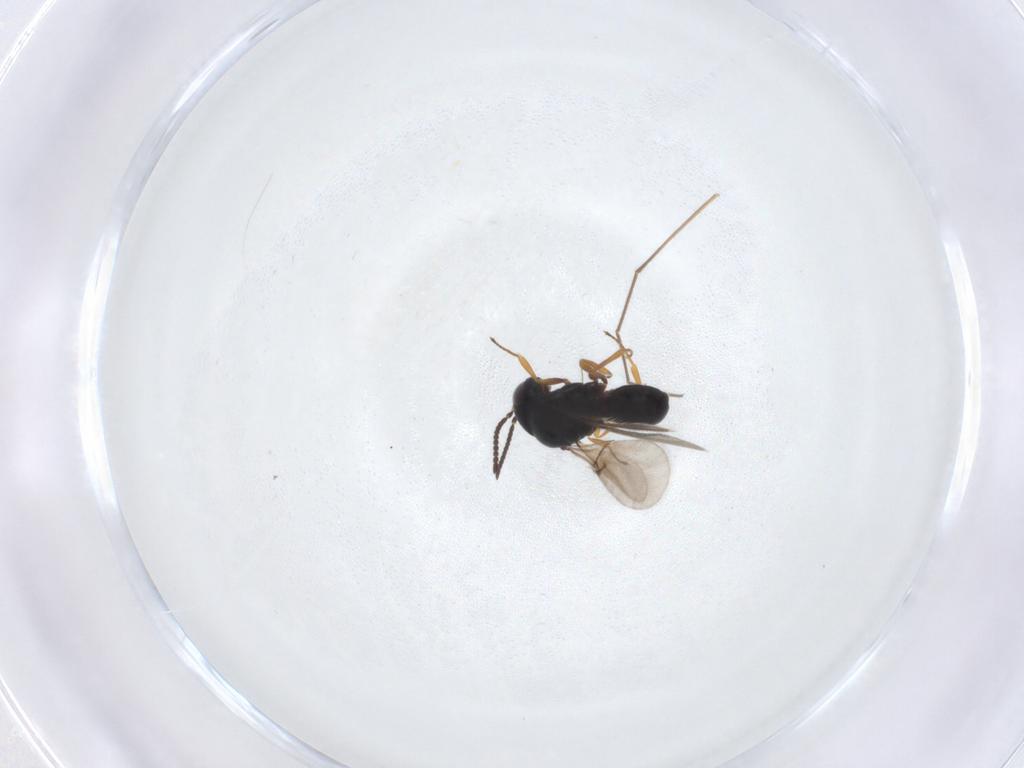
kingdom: Animalia
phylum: Arthropoda
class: Insecta
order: Hymenoptera
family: Scelionidae
